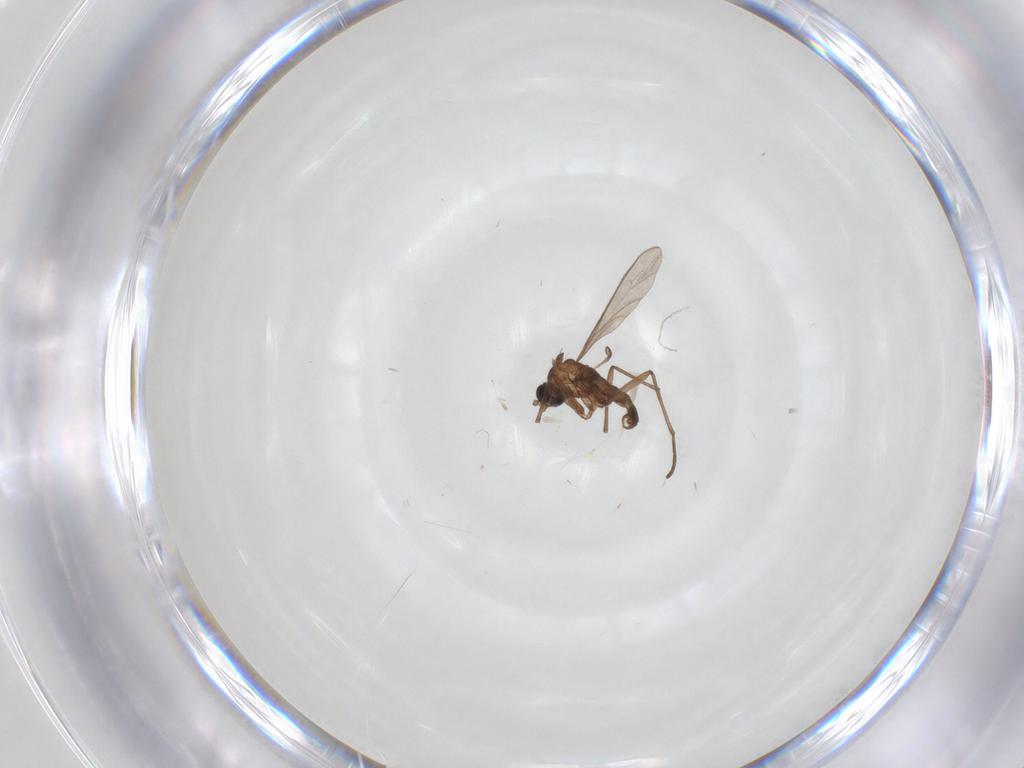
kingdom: Animalia
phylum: Arthropoda
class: Insecta
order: Diptera
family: Sciaridae
